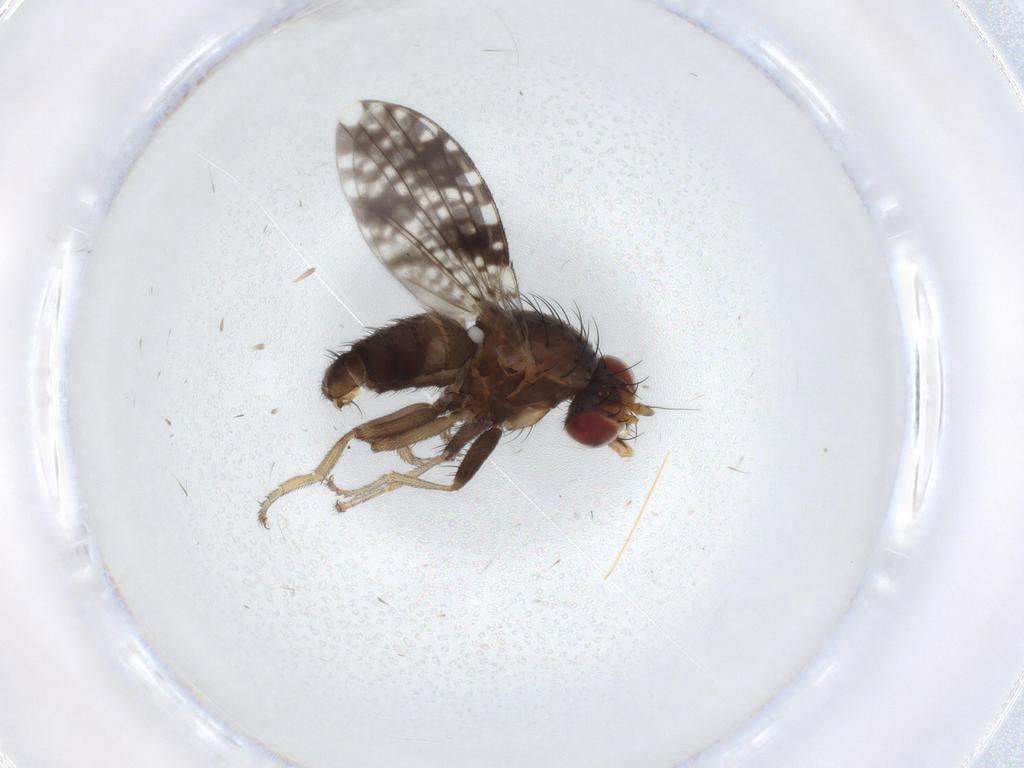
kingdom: Animalia
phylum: Arthropoda
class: Insecta
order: Diptera
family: Tephritidae
